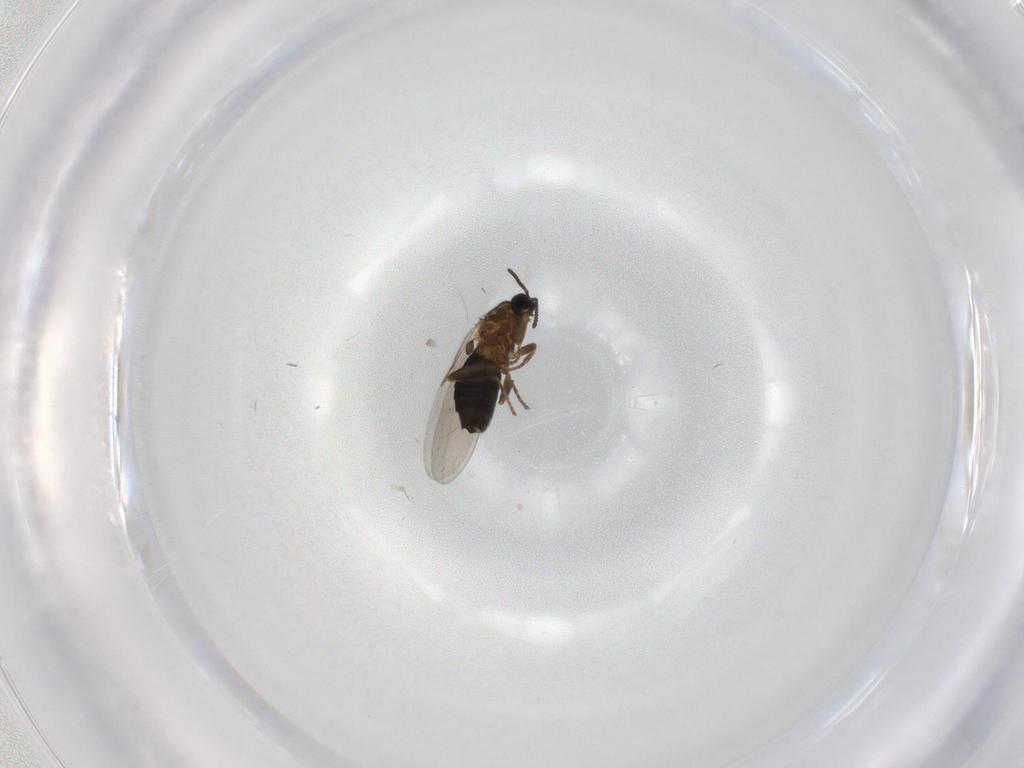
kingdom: Animalia
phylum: Arthropoda
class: Insecta
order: Diptera
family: Scatopsidae
